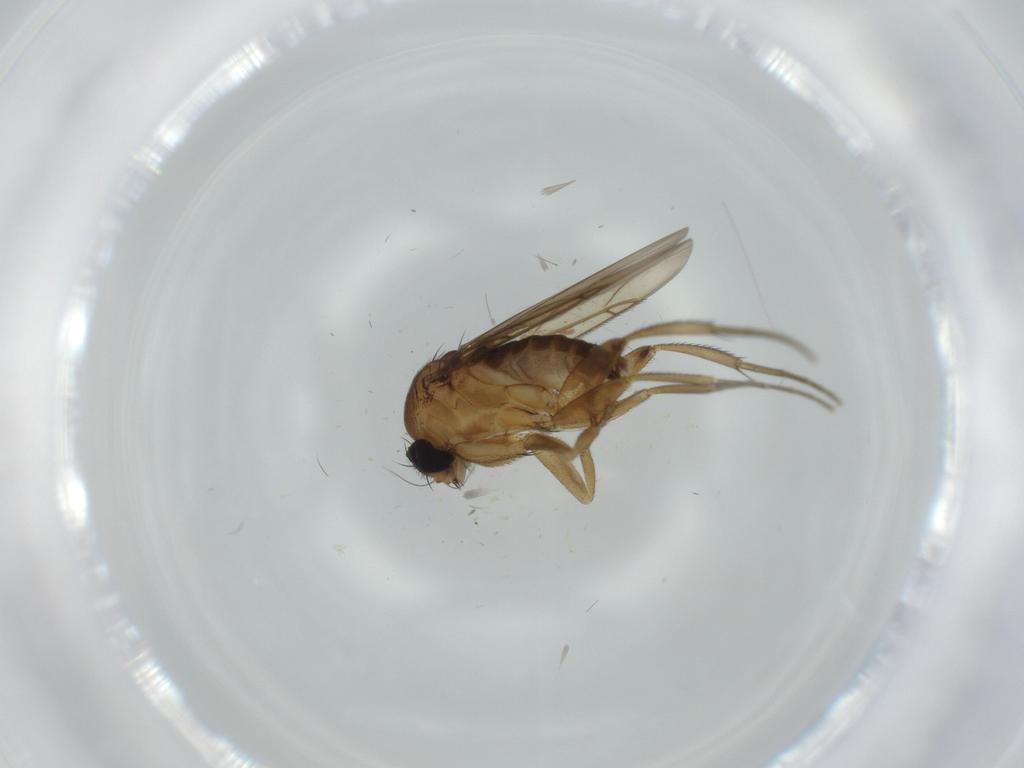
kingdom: Animalia
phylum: Arthropoda
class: Insecta
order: Diptera
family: Phoridae
